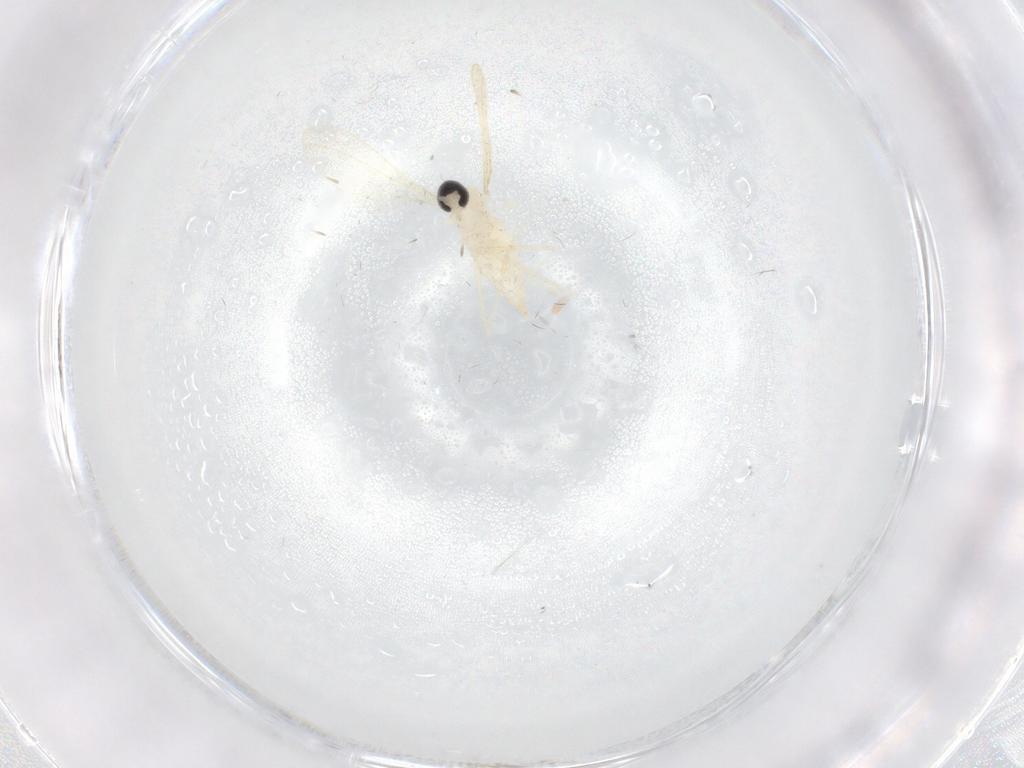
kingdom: Animalia
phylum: Arthropoda
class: Insecta
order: Diptera
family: Cecidomyiidae
